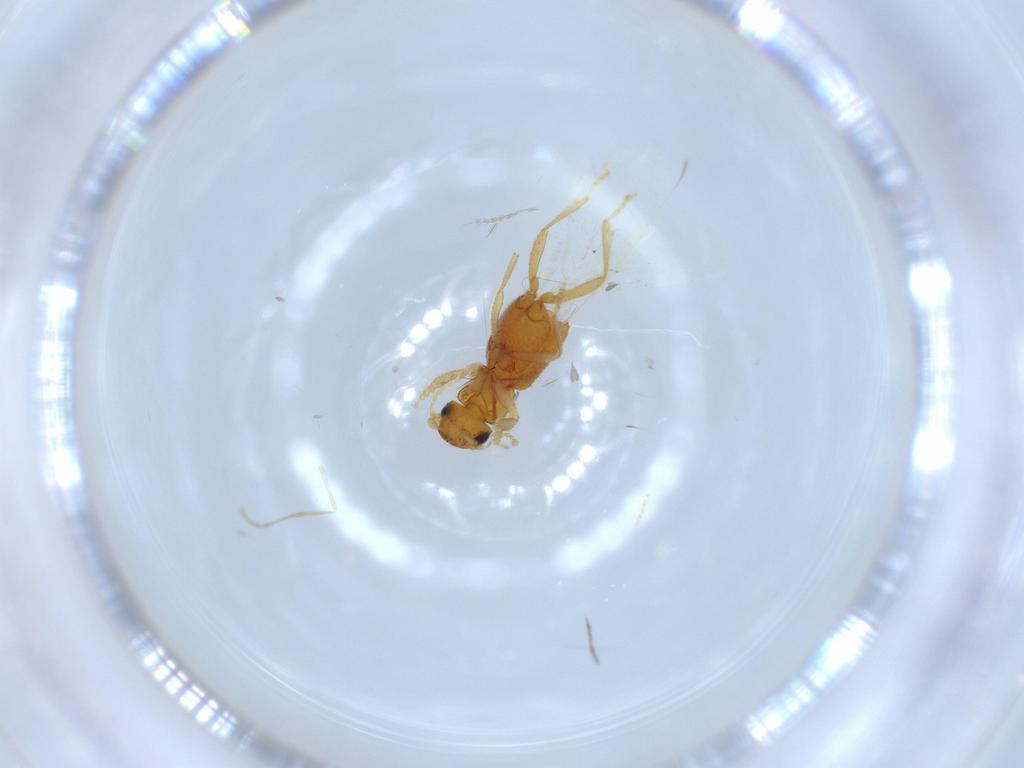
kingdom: Animalia
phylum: Arthropoda
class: Insecta
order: Coleoptera
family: Staphylinidae
